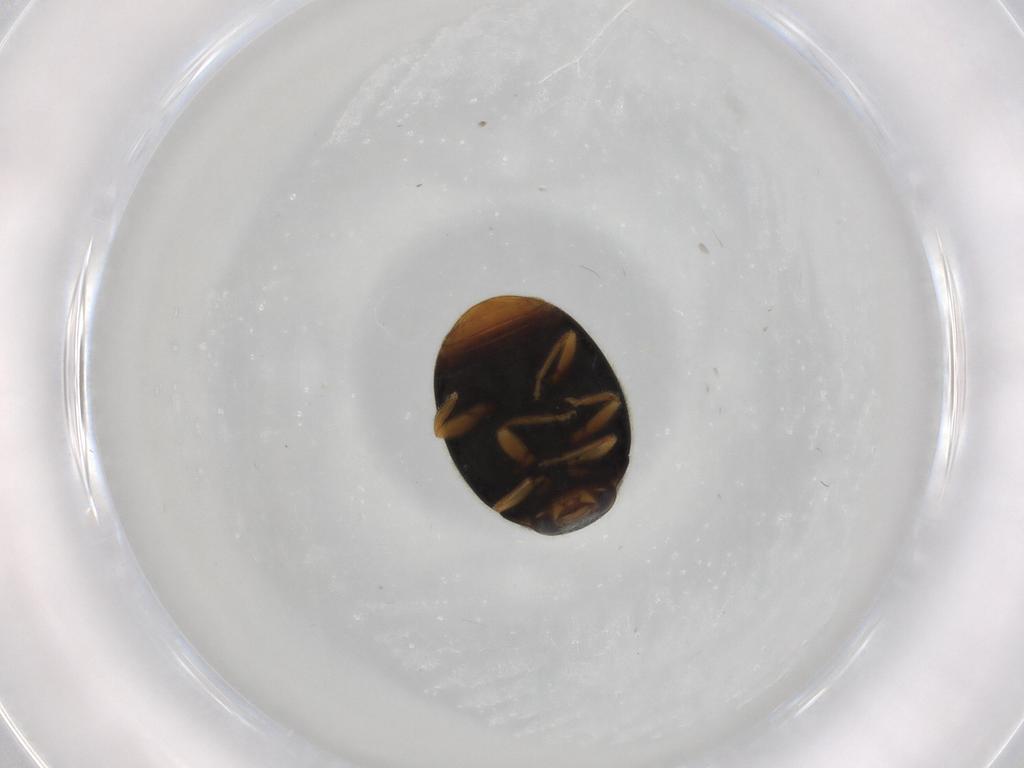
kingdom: Animalia
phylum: Arthropoda
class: Insecta
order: Coleoptera
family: Coccinellidae
